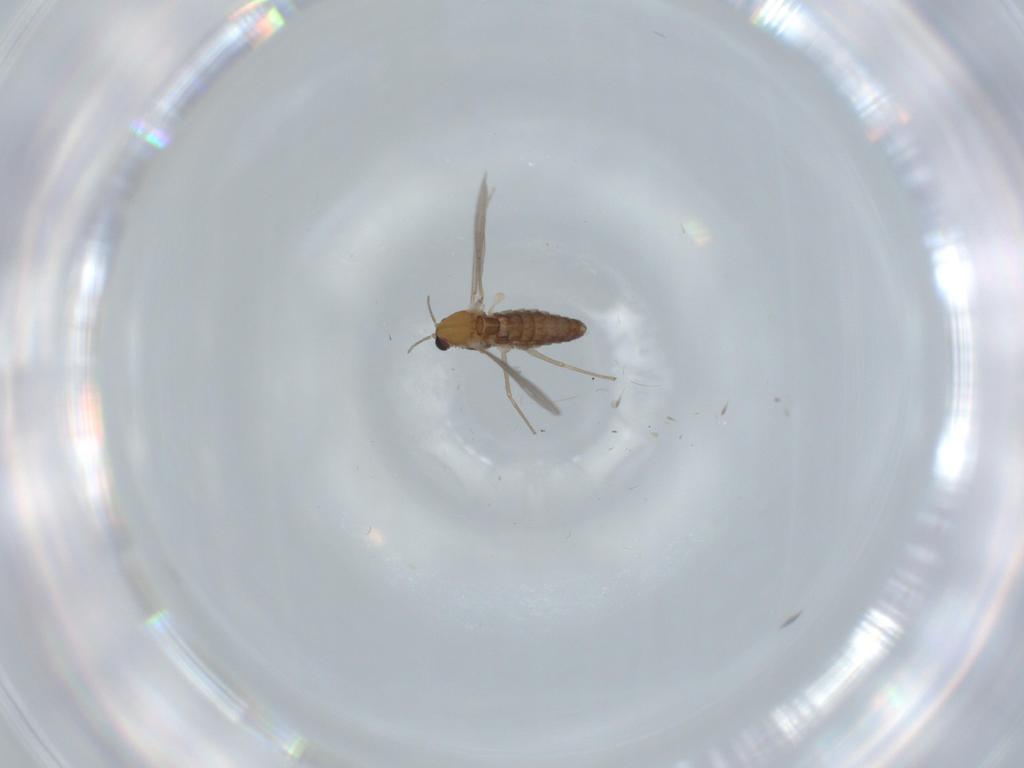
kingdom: Animalia
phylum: Arthropoda
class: Insecta
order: Diptera
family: Chironomidae
